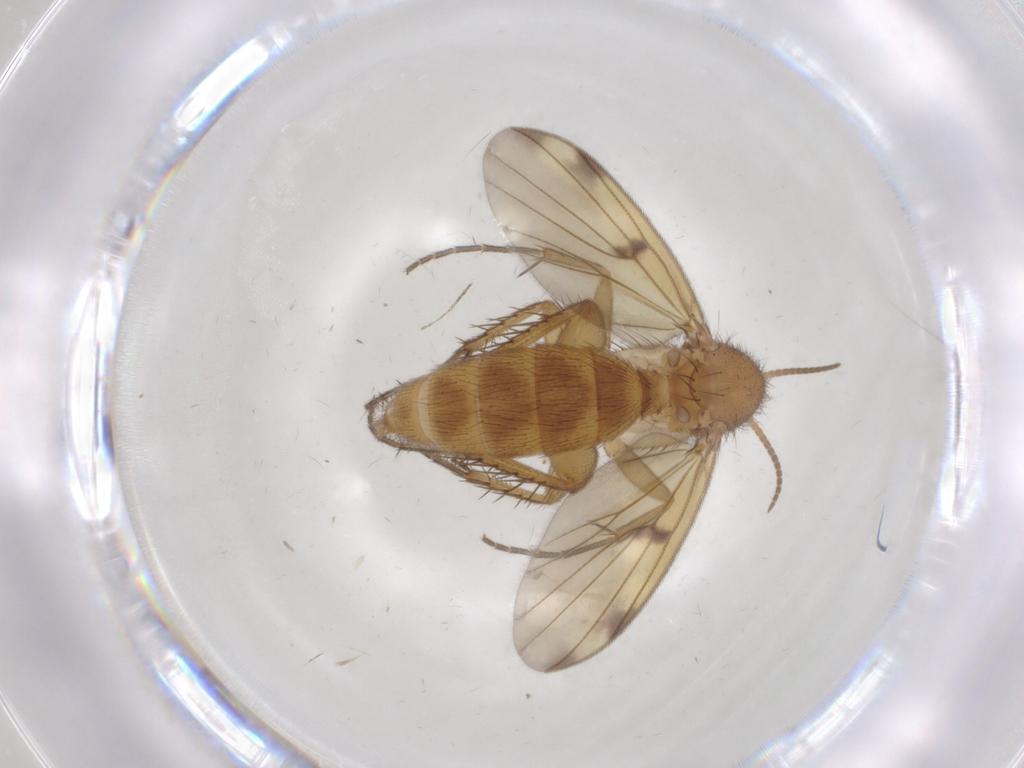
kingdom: Animalia
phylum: Arthropoda
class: Insecta
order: Diptera
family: Mycetophilidae
